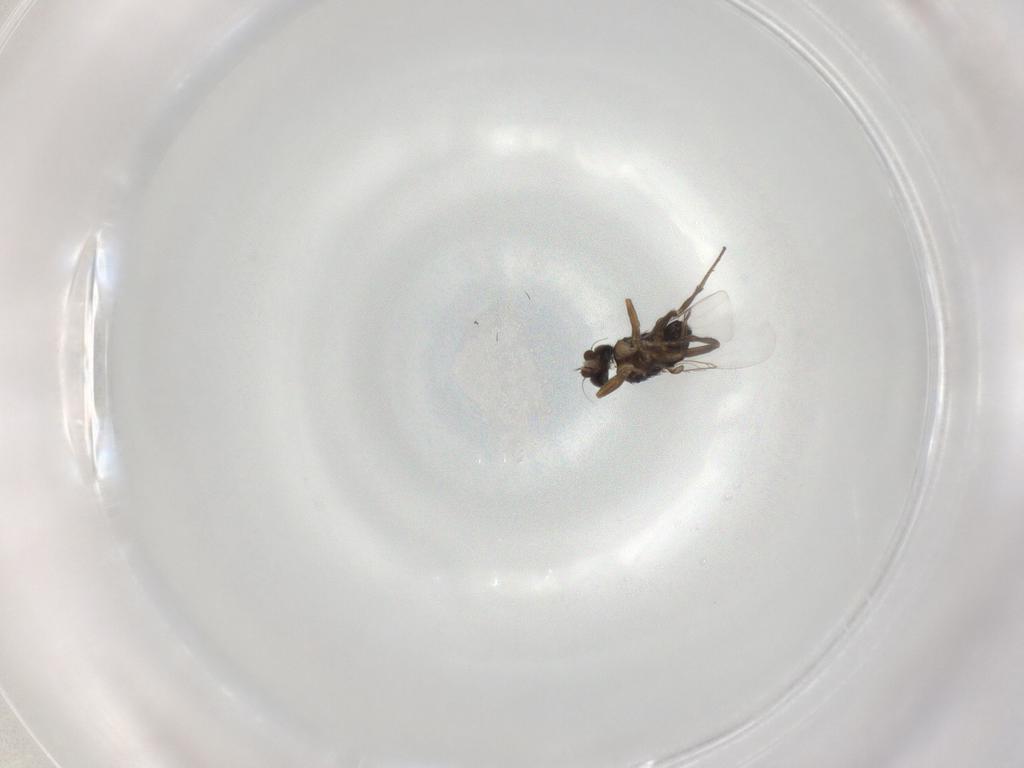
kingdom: Animalia
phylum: Arthropoda
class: Insecta
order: Diptera
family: Phoridae
